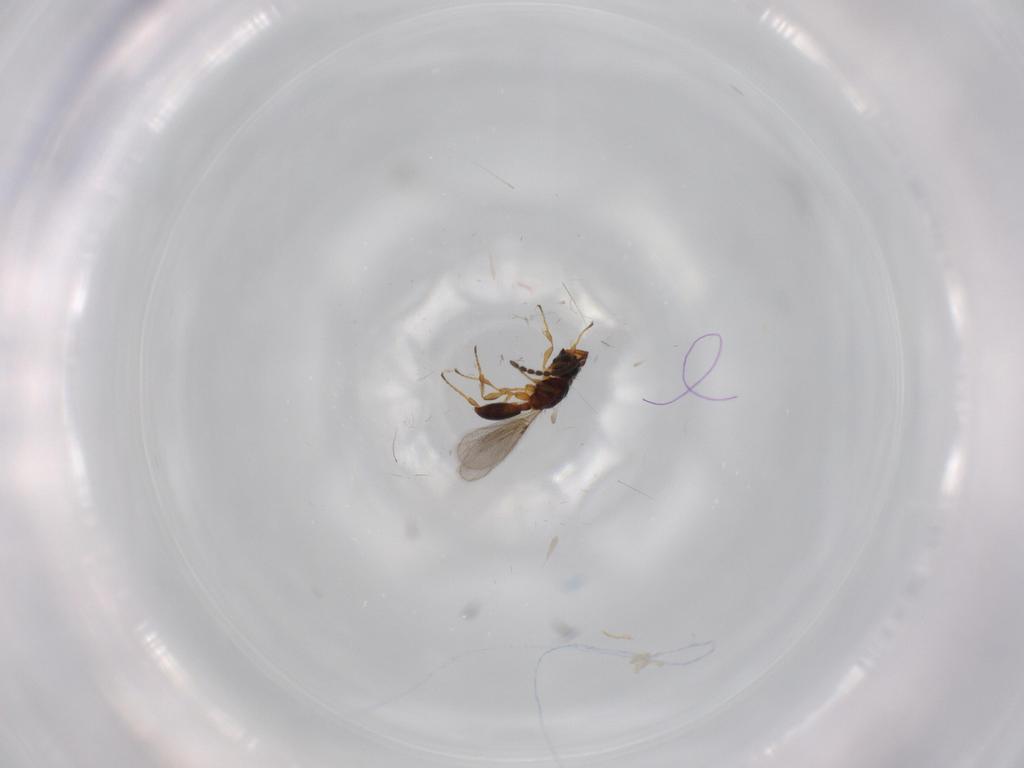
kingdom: Animalia
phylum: Arthropoda
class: Insecta
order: Hymenoptera
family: Diapriidae
